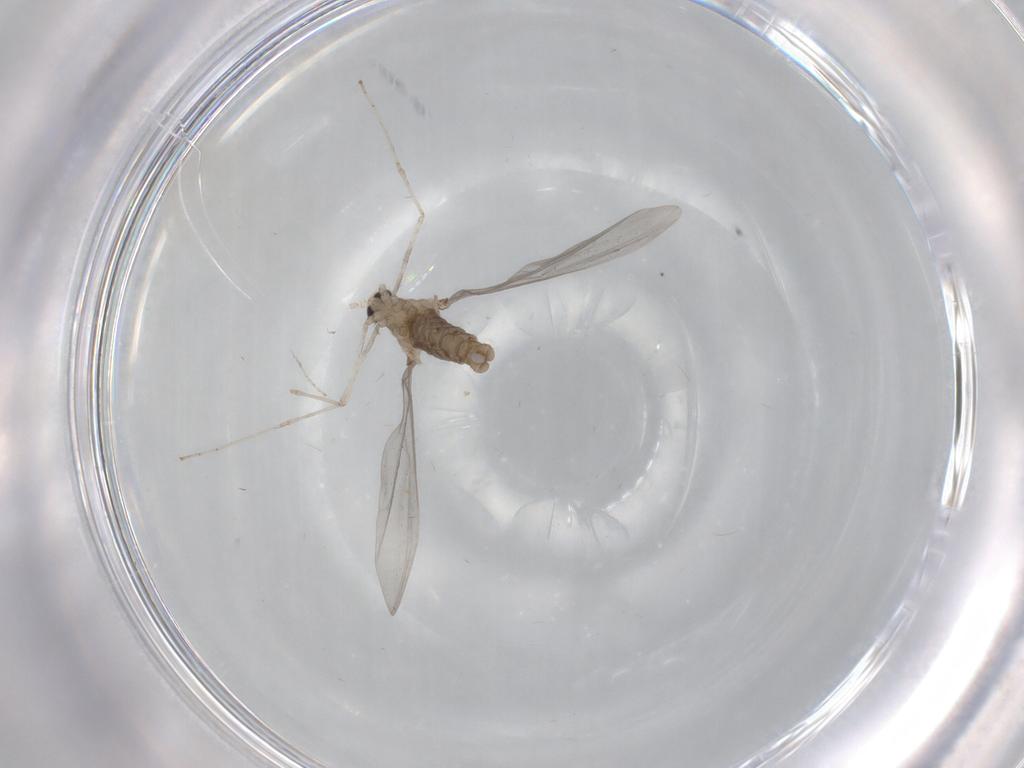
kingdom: Animalia
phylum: Arthropoda
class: Insecta
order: Diptera
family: Cecidomyiidae
